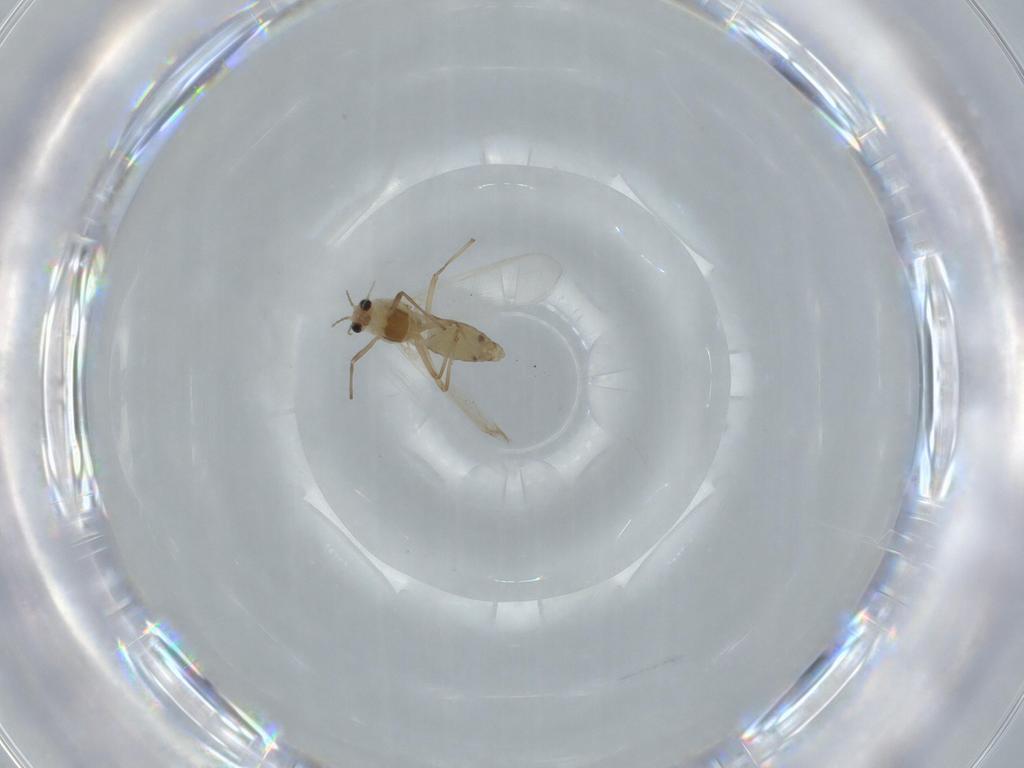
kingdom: Animalia
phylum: Arthropoda
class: Insecta
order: Diptera
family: Chironomidae
